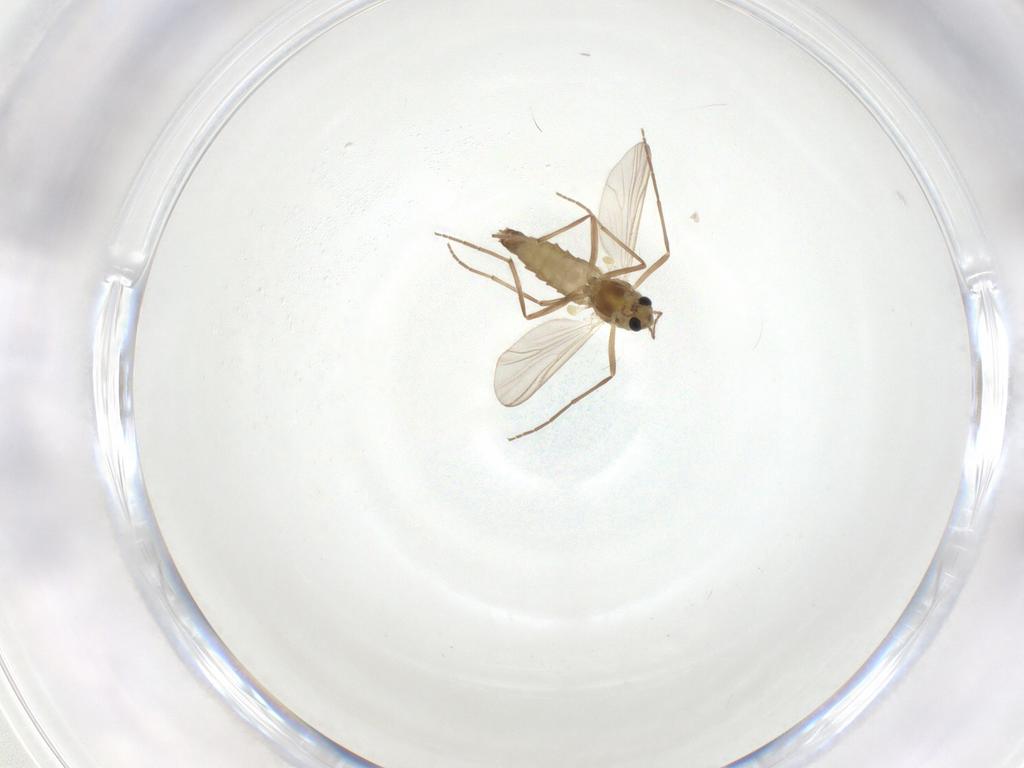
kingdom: Animalia
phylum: Arthropoda
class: Insecta
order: Diptera
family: Chironomidae
